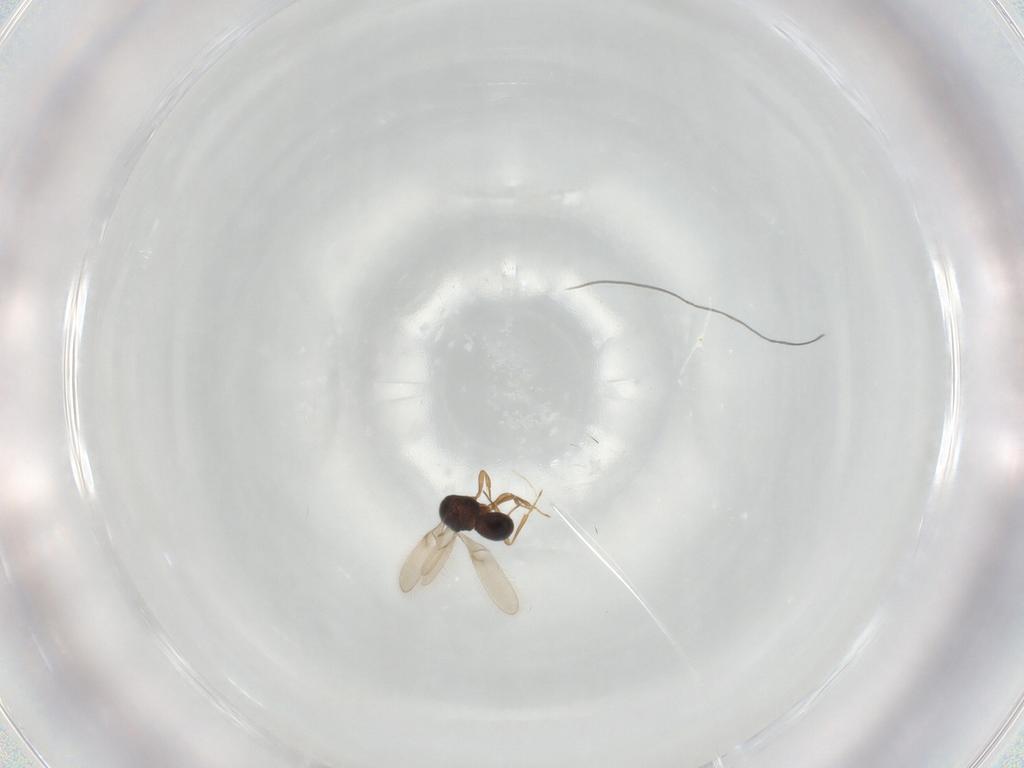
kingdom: Animalia
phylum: Arthropoda
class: Insecta
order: Hymenoptera
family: Scelionidae
